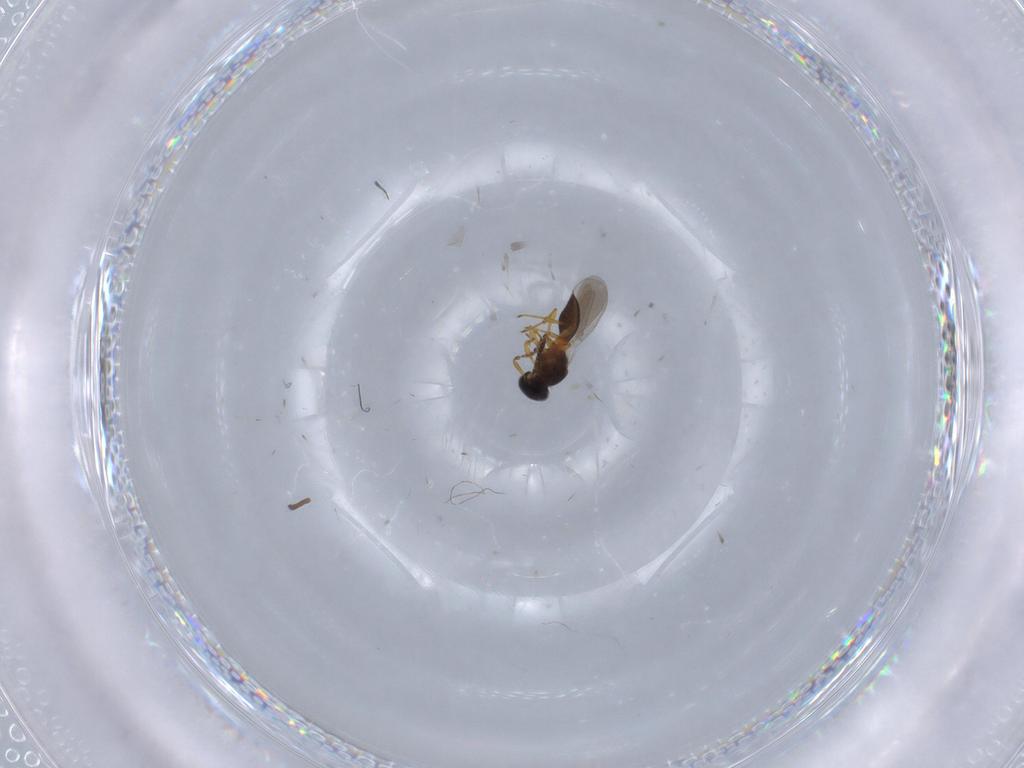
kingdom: Animalia
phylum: Arthropoda
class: Insecta
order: Hymenoptera
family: Platygastridae
